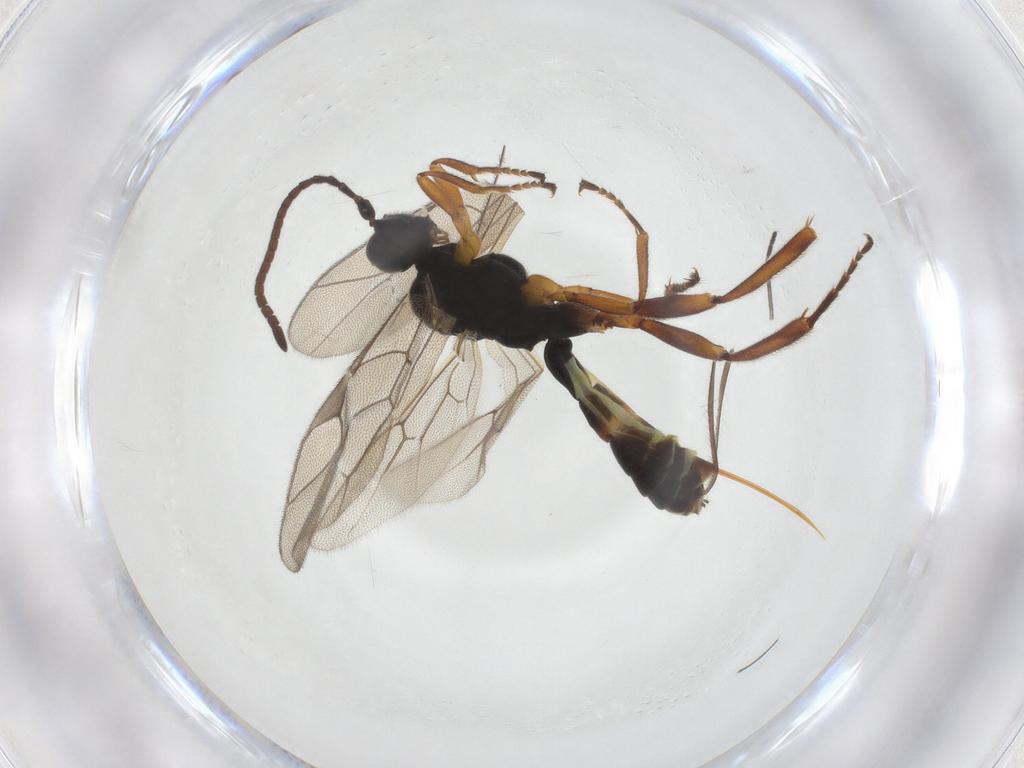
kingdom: Animalia
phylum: Arthropoda
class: Insecta
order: Hymenoptera
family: Ichneumonidae
